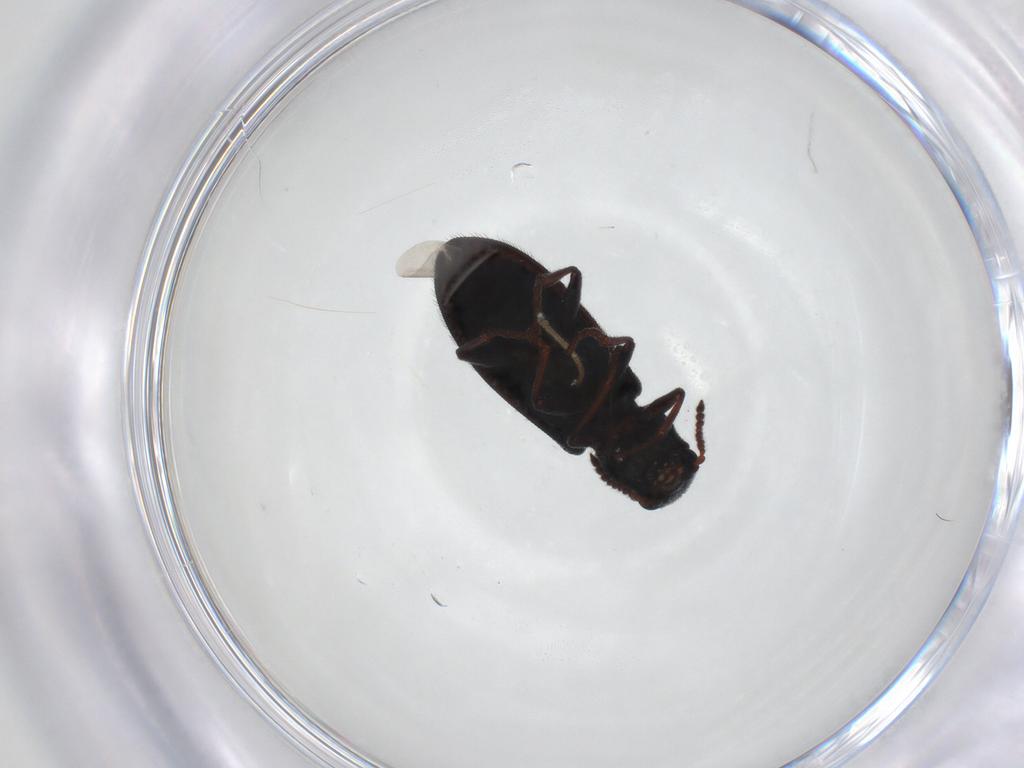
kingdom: Animalia
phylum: Arthropoda
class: Insecta
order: Coleoptera
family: Melyridae
